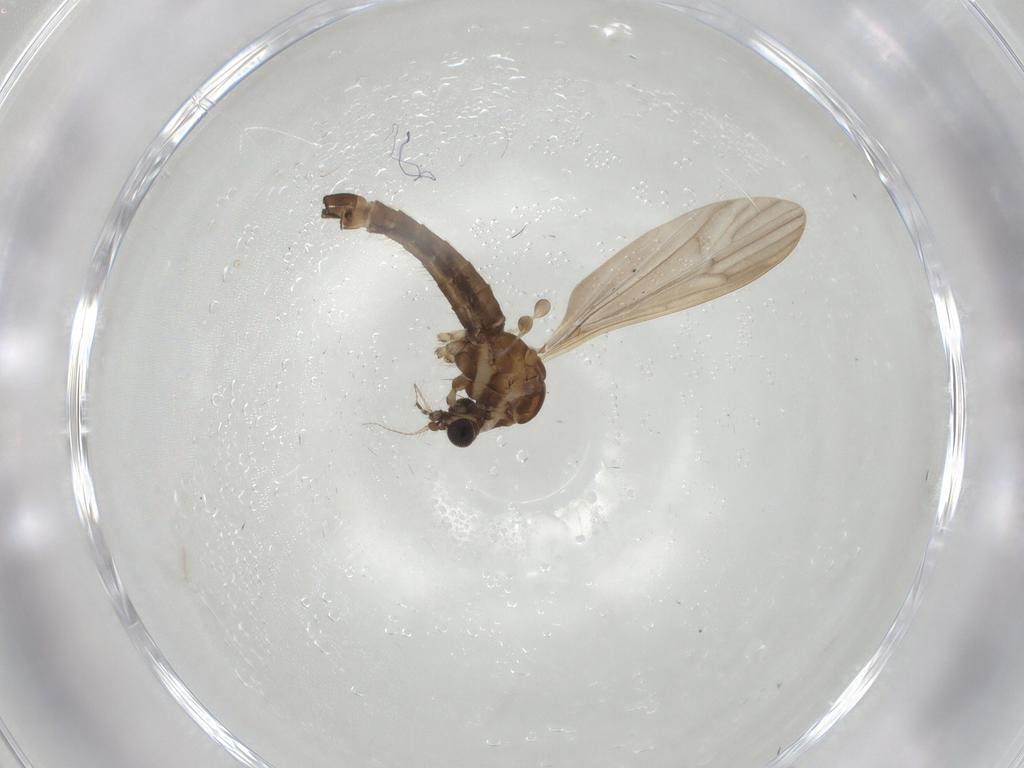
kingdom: Animalia
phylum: Arthropoda
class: Insecta
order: Diptera
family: Limoniidae
